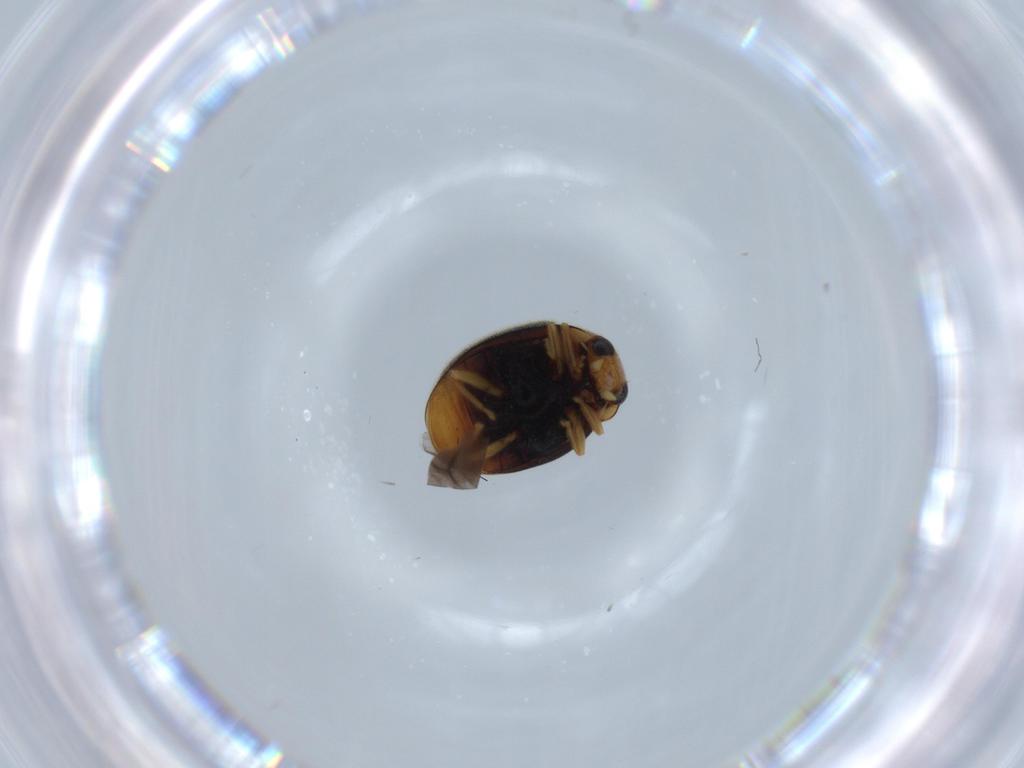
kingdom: Animalia
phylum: Arthropoda
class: Insecta
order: Coleoptera
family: Coccinellidae
